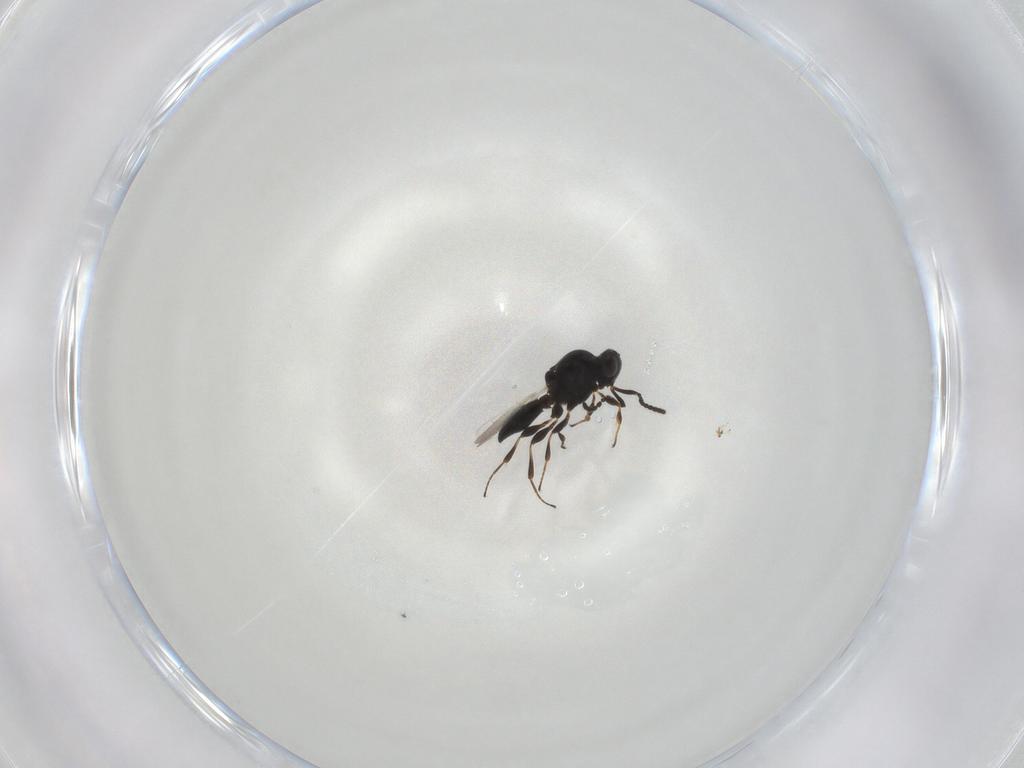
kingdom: Animalia
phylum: Arthropoda
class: Insecta
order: Hymenoptera
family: Platygastridae
